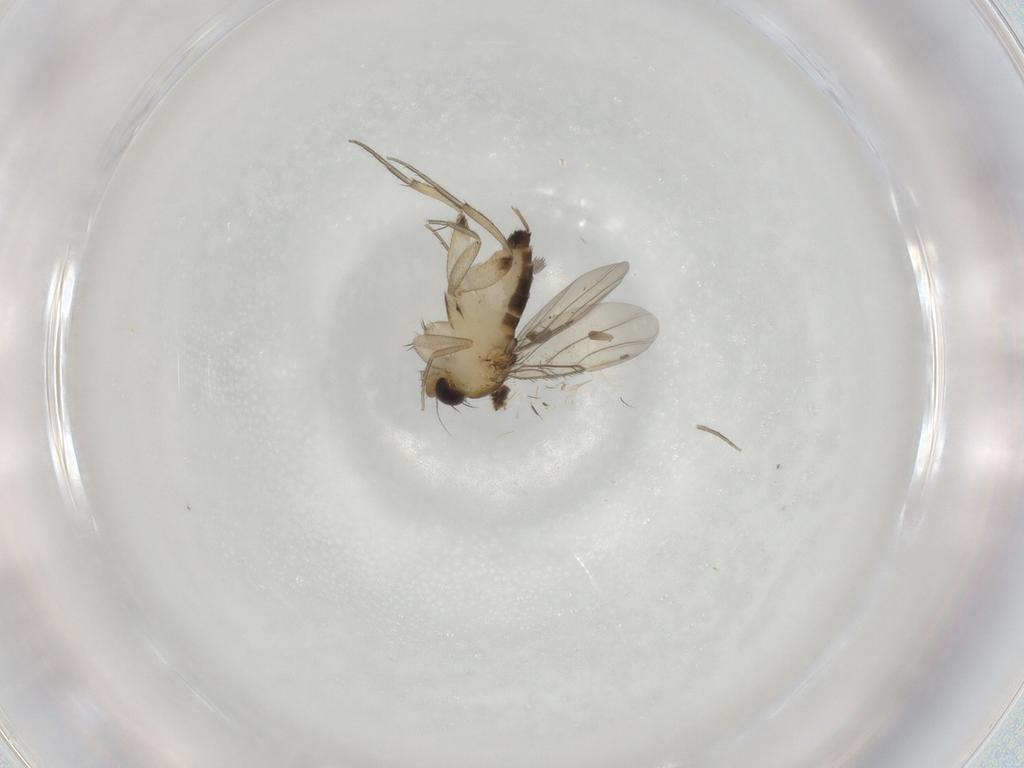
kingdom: Animalia
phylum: Arthropoda
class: Insecta
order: Diptera
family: Phoridae
